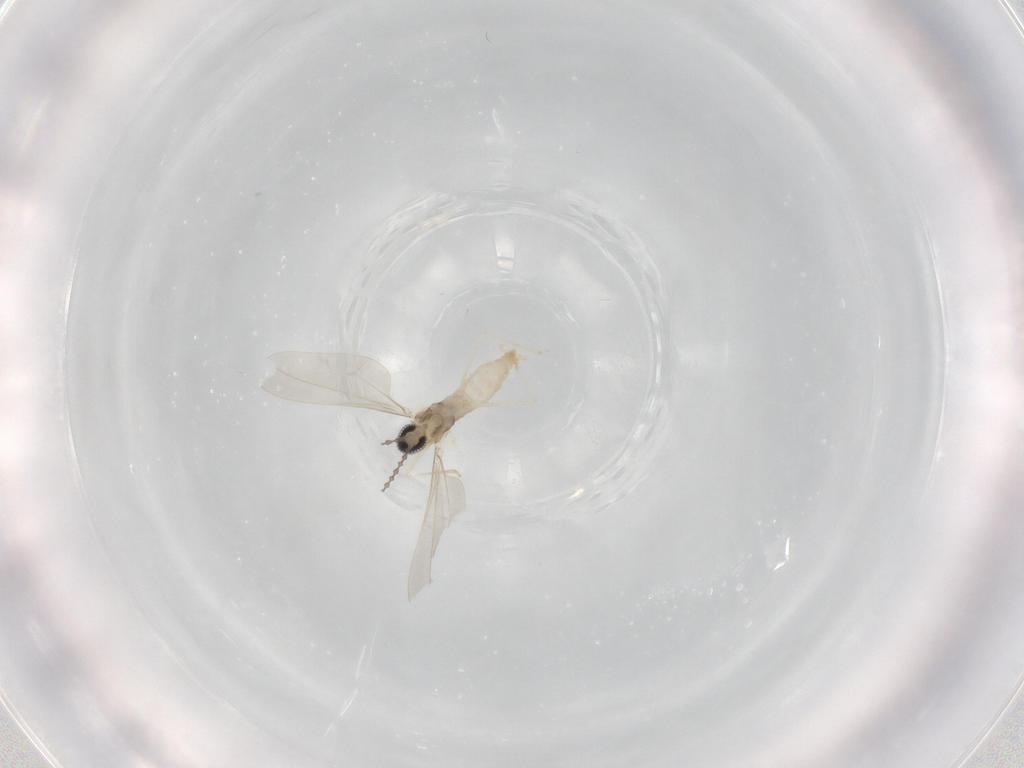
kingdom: Animalia
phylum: Arthropoda
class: Insecta
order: Diptera
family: Cecidomyiidae
